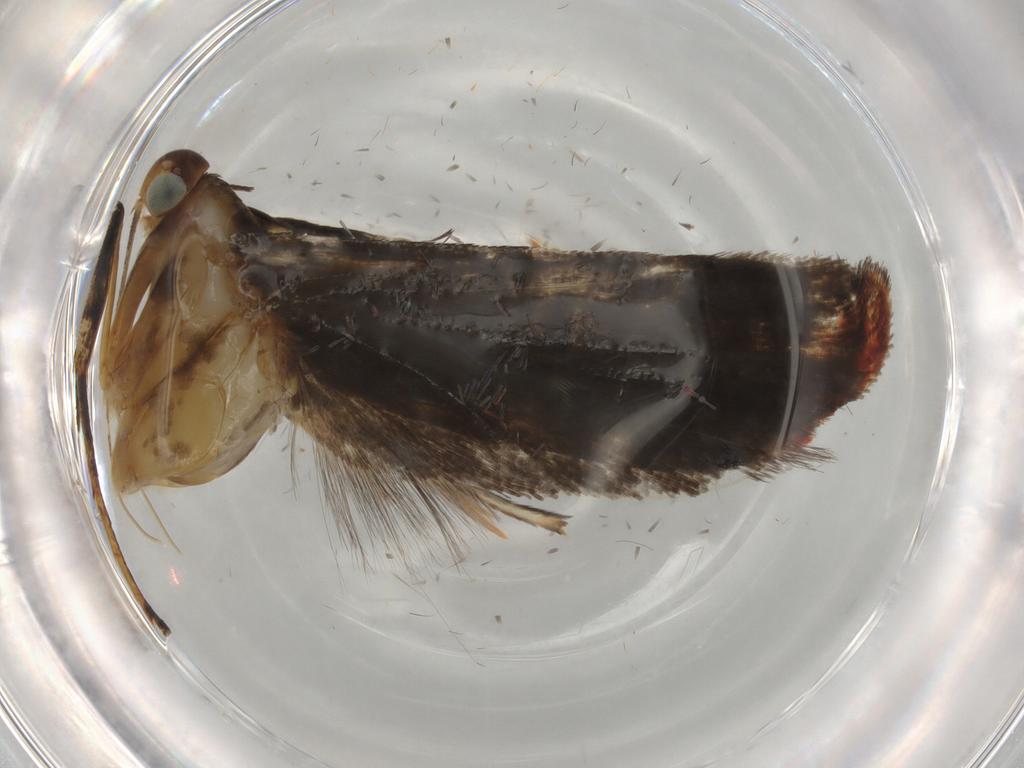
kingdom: Animalia
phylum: Arthropoda
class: Insecta
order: Lepidoptera
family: Gelechiidae
